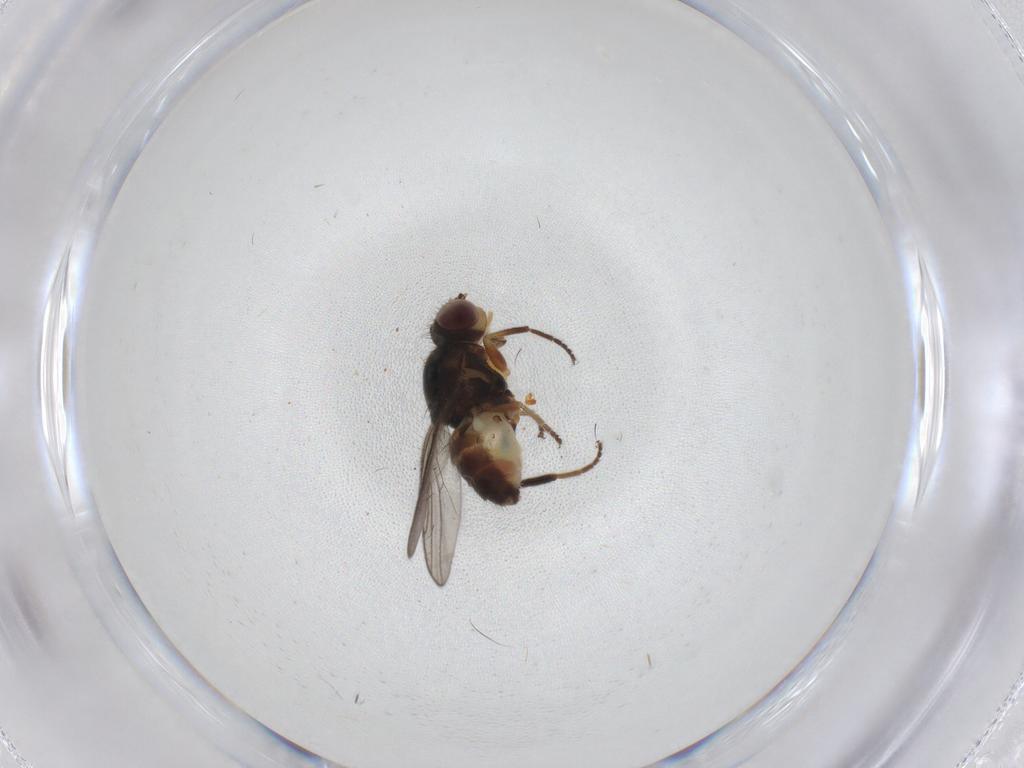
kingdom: Animalia
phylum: Arthropoda
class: Insecta
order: Diptera
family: Chloropidae
